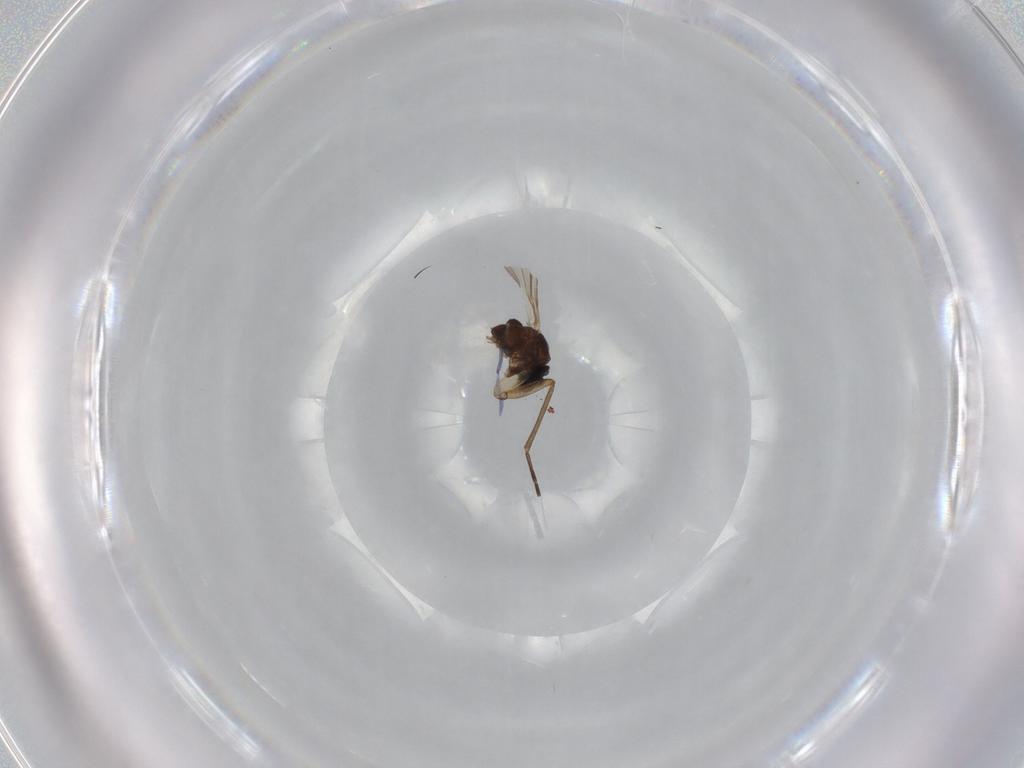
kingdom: Animalia
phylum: Arthropoda
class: Insecta
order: Diptera
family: Sciaridae
